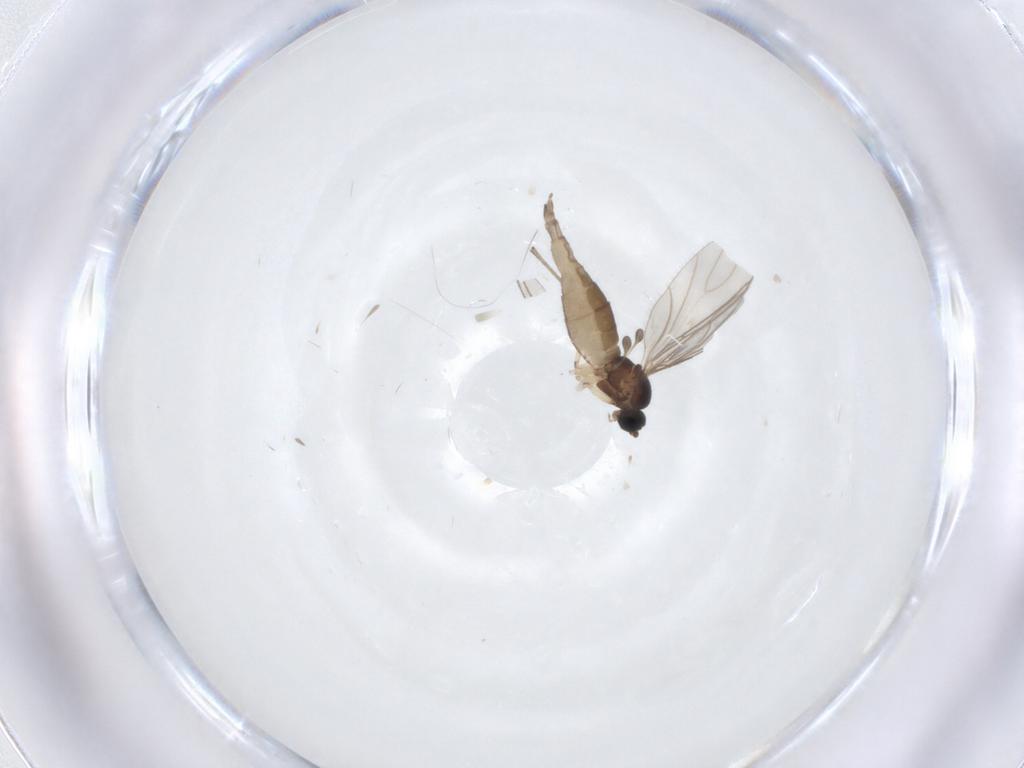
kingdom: Animalia
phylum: Arthropoda
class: Insecta
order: Diptera
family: Sciaridae
